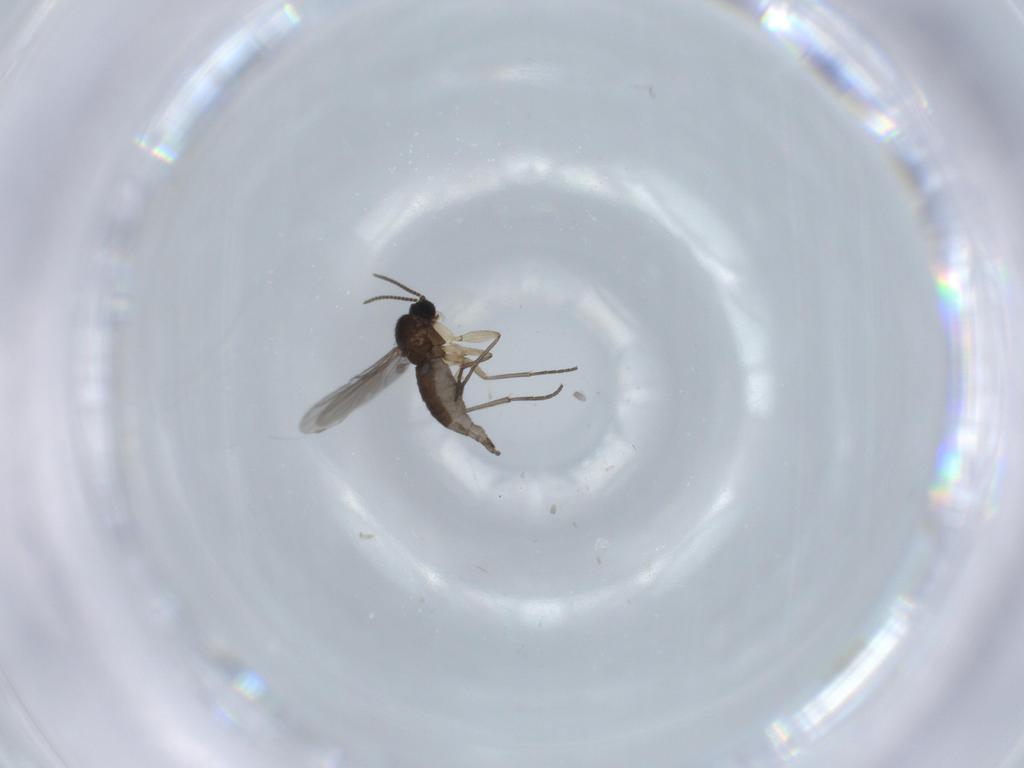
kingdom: Animalia
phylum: Arthropoda
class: Insecta
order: Diptera
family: Sciaridae
